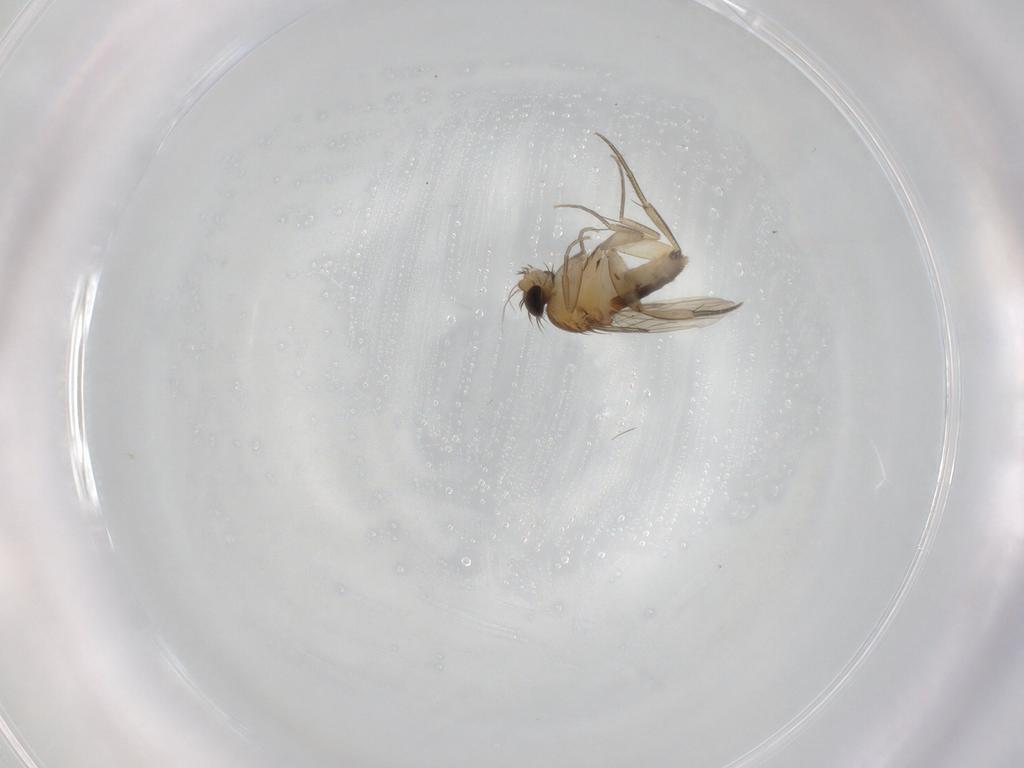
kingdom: Animalia
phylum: Arthropoda
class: Insecta
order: Diptera
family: Phoridae
